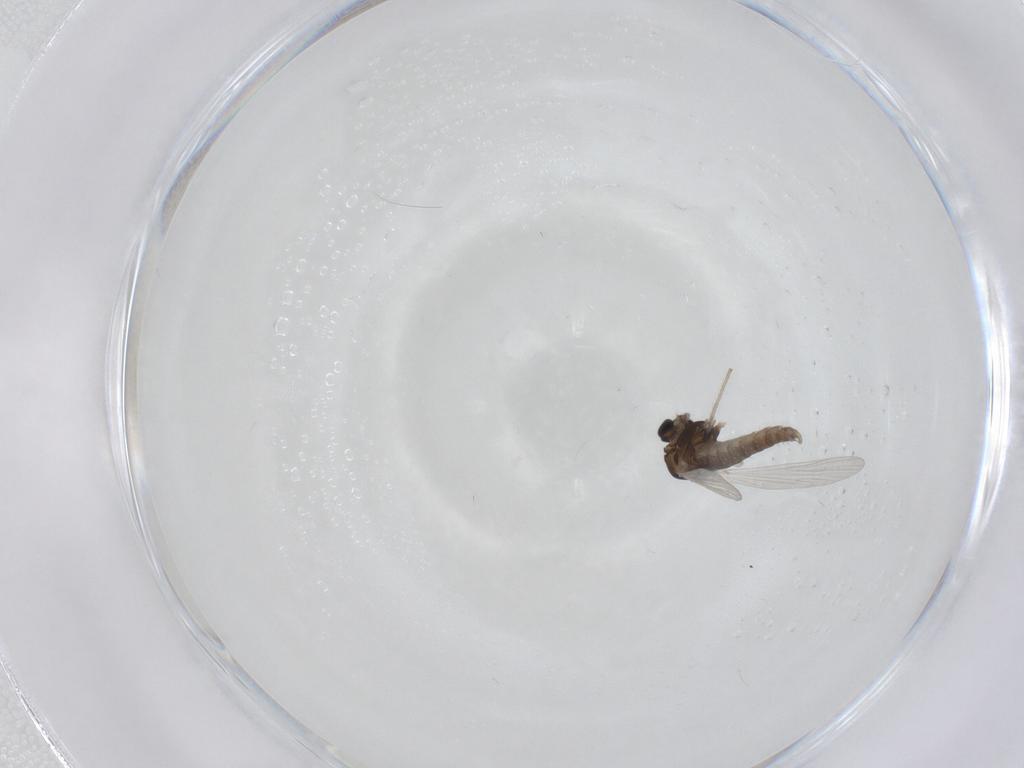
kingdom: Animalia
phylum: Arthropoda
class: Insecta
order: Diptera
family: Chironomidae
